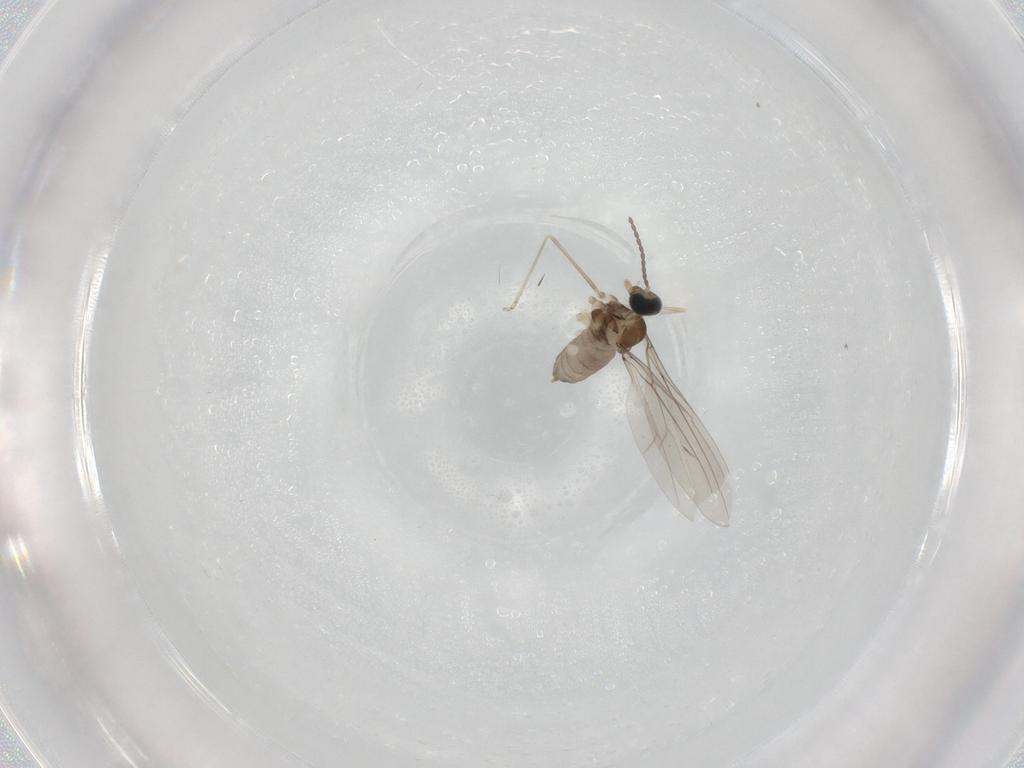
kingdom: Animalia
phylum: Arthropoda
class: Insecta
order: Diptera
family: Cecidomyiidae
